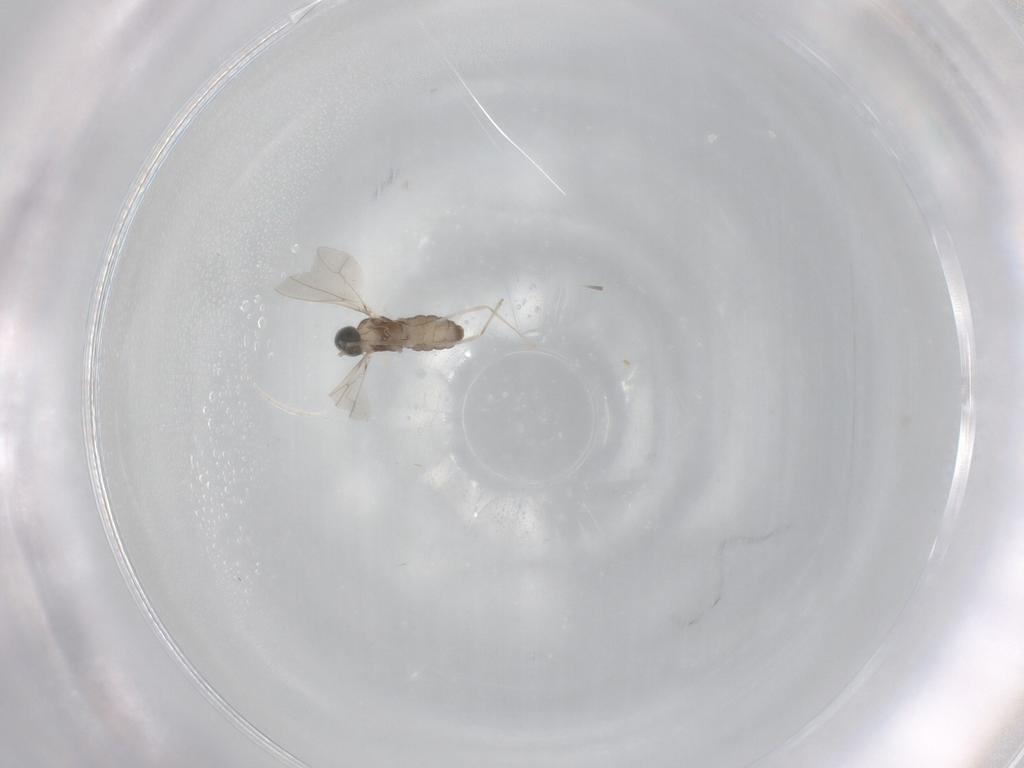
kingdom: Animalia
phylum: Arthropoda
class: Insecta
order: Diptera
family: Cecidomyiidae
